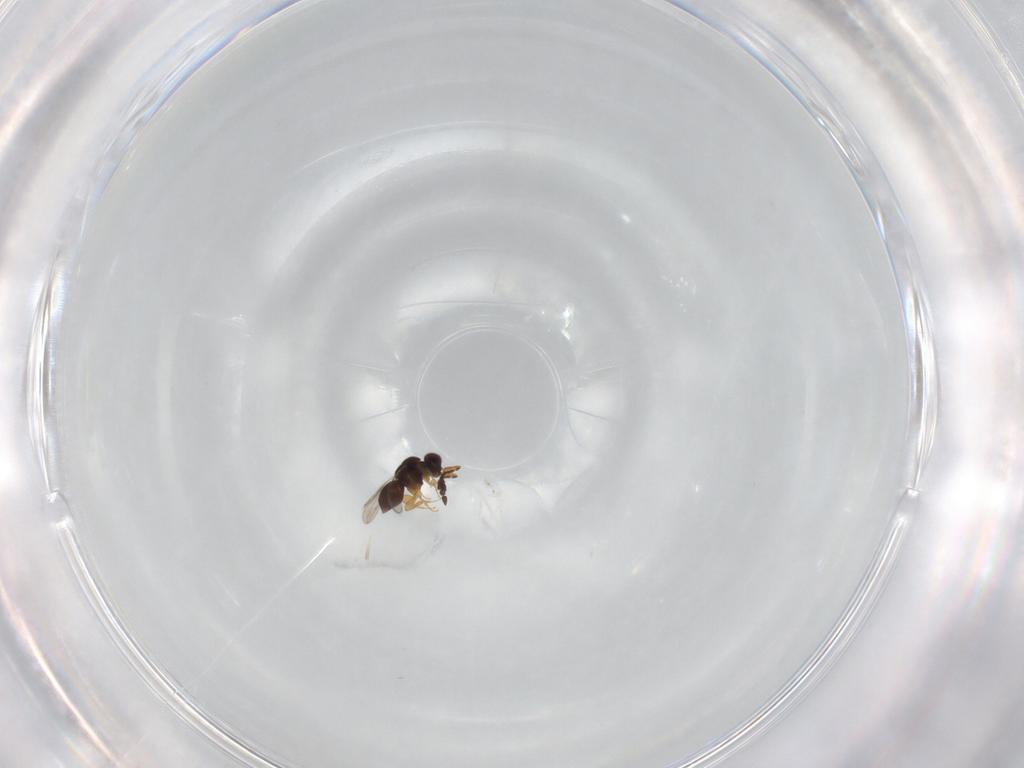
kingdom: Animalia
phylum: Arthropoda
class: Insecta
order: Hymenoptera
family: Ceraphronidae
